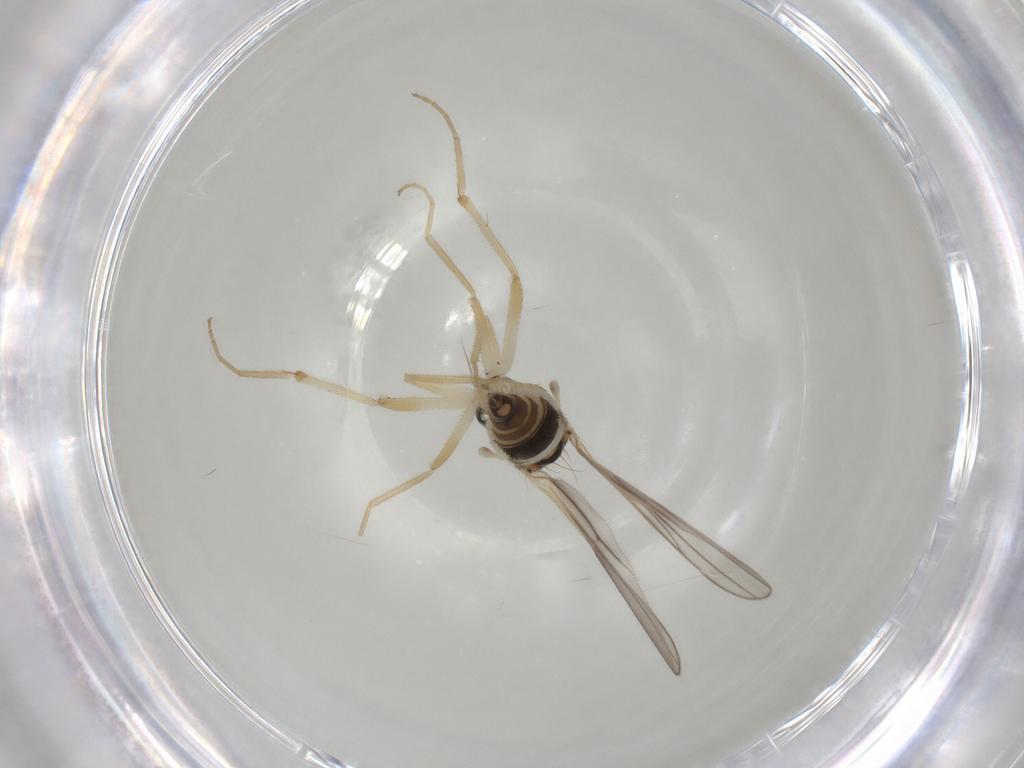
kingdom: Animalia
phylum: Arthropoda
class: Insecta
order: Diptera
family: Hybotidae
